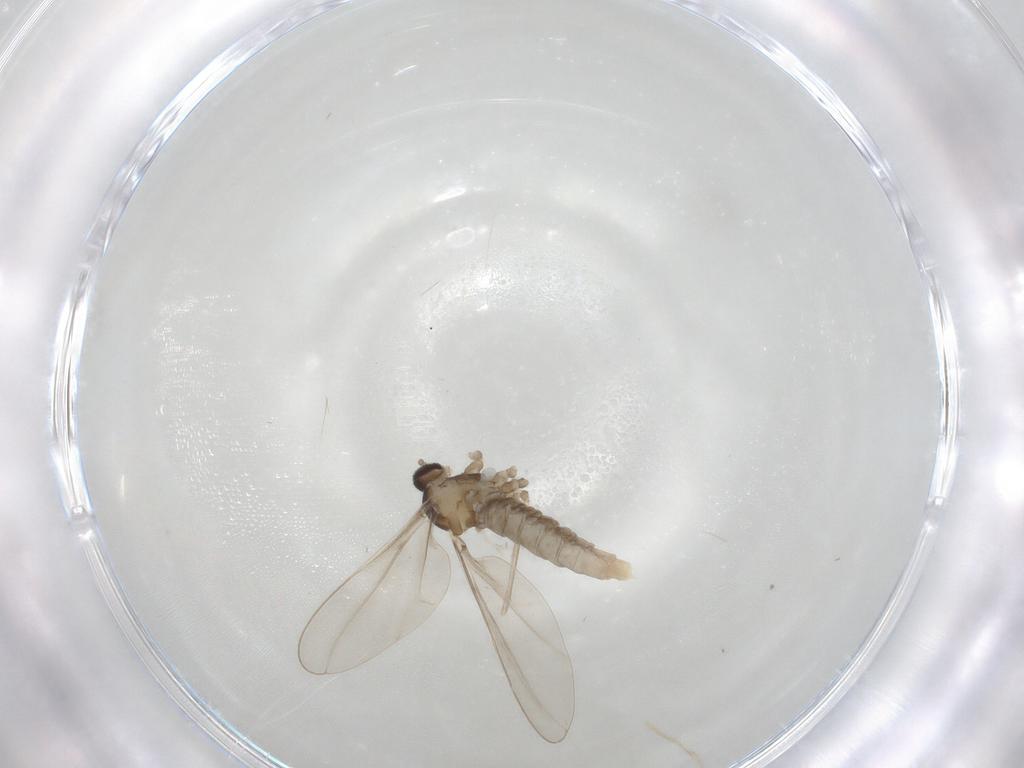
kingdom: Animalia
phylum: Arthropoda
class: Insecta
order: Diptera
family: Cecidomyiidae
